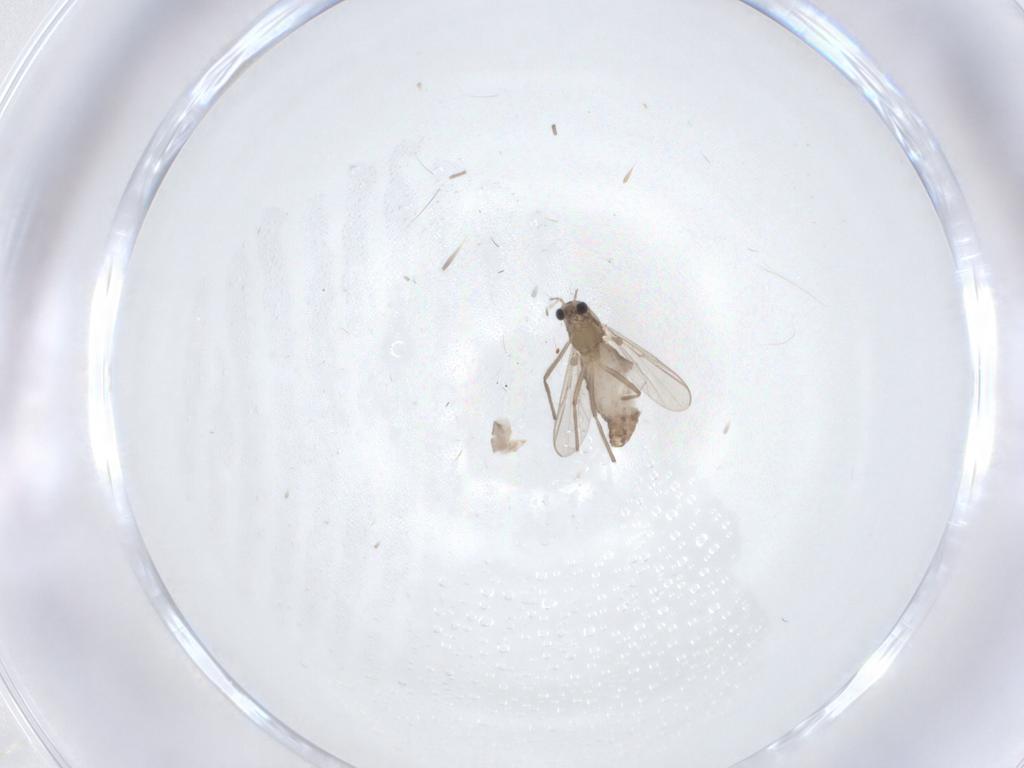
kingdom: Animalia
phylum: Arthropoda
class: Insecta
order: Diptera
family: Chironomidae
